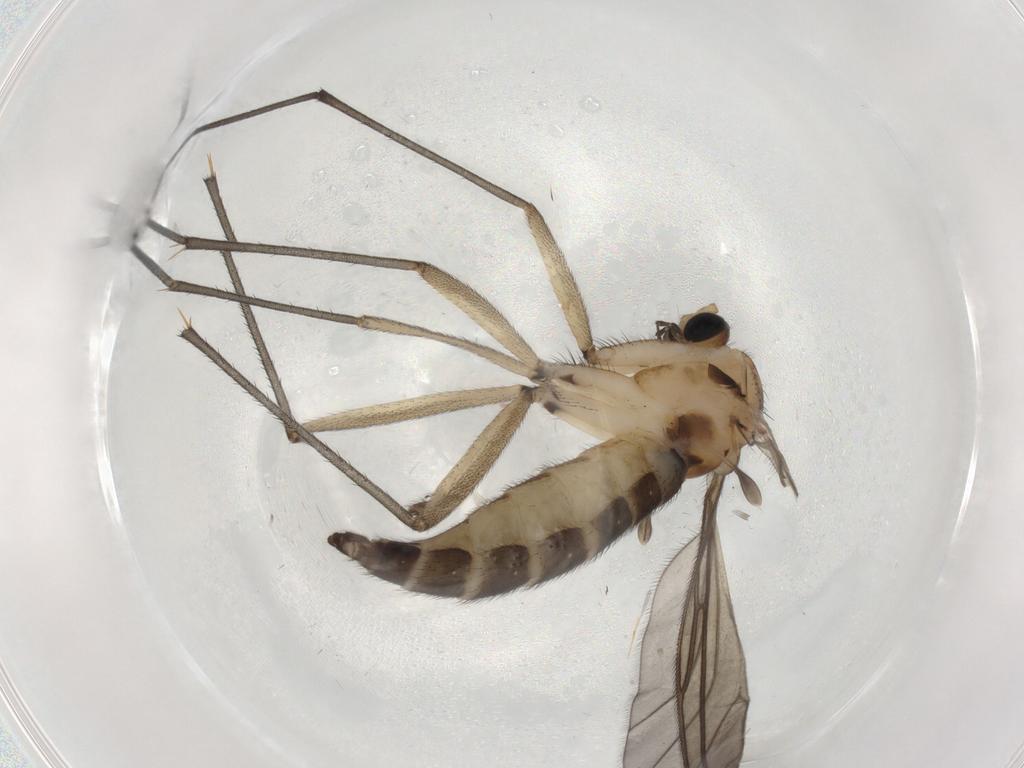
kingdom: Animalia
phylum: Arthropoda
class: Insecta
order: Diptera
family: Sciaridae
